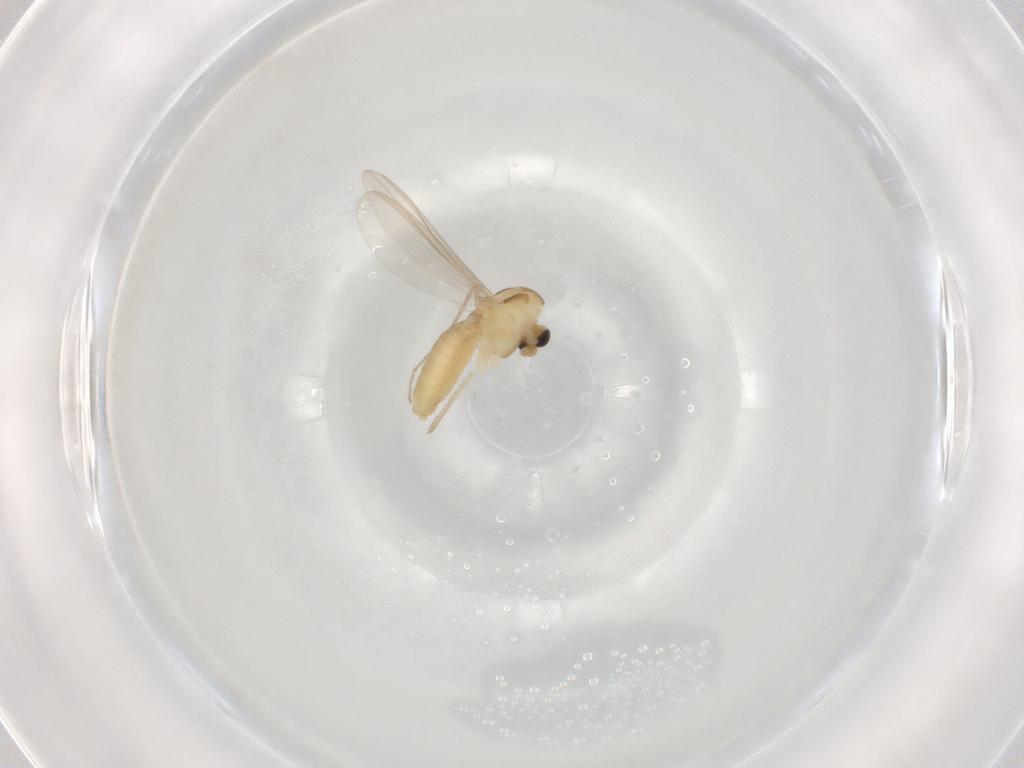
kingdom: Animalia
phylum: Arthropoda
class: Insecta
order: Diptera
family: Chironomidae
